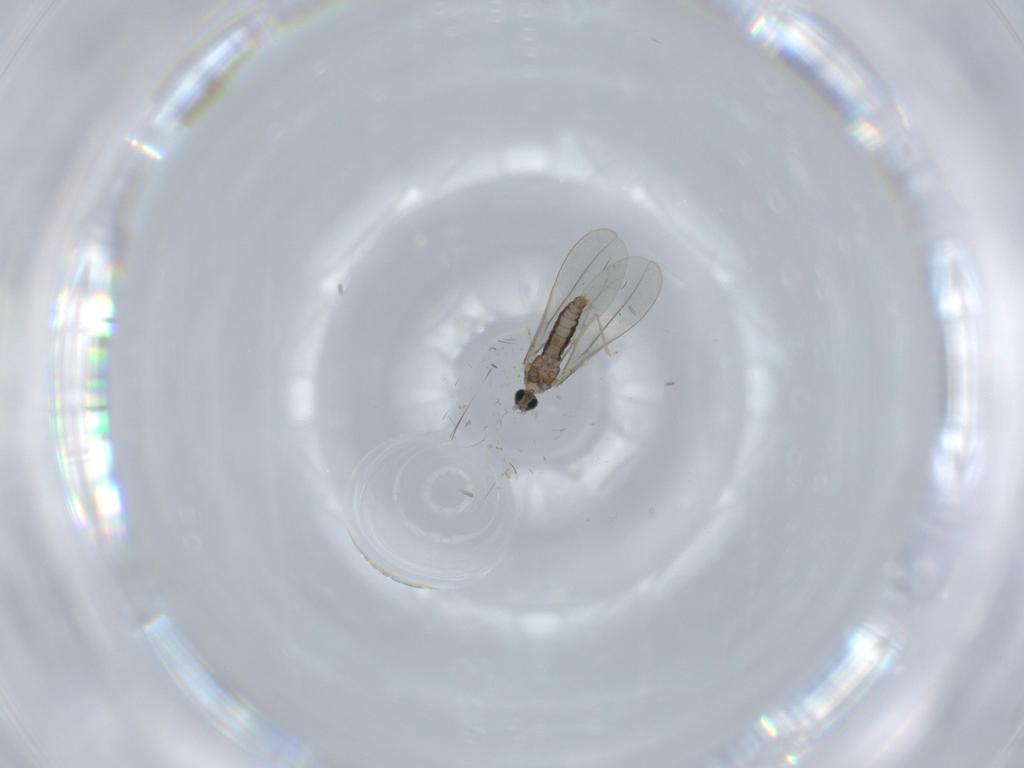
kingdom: Animalia
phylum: Arthropoda
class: Insecta
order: Diptera
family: Cecidomyiidae
